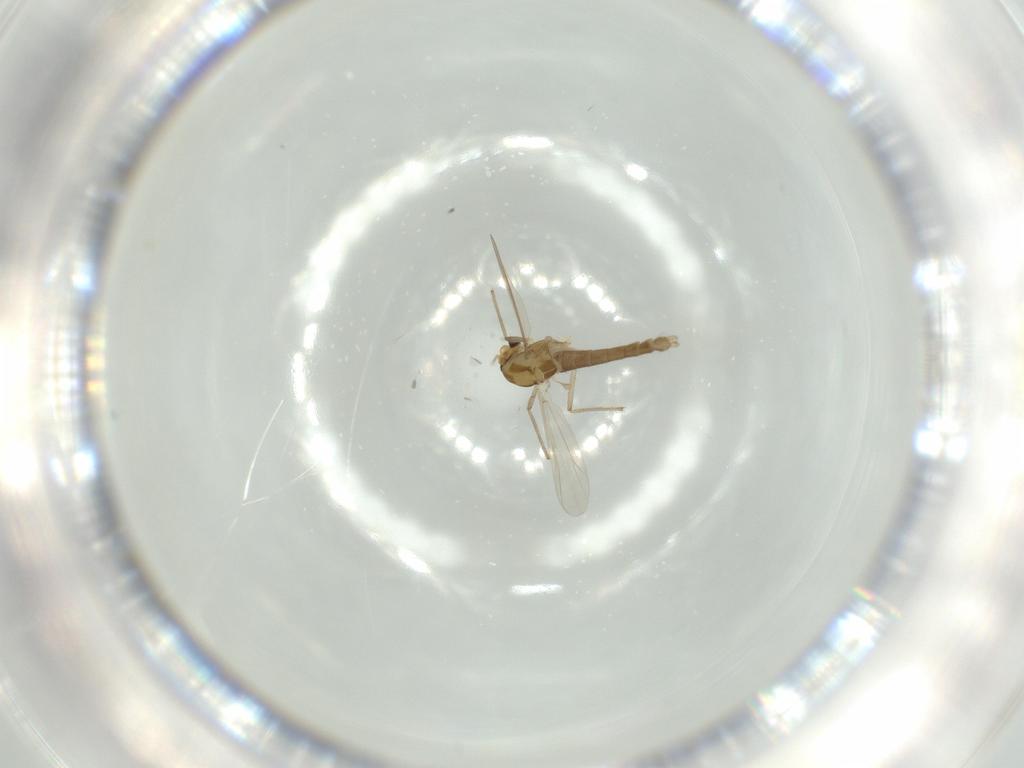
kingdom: Animalia
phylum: Arthropoda
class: Insecta
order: Diptera
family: Chironomidae
